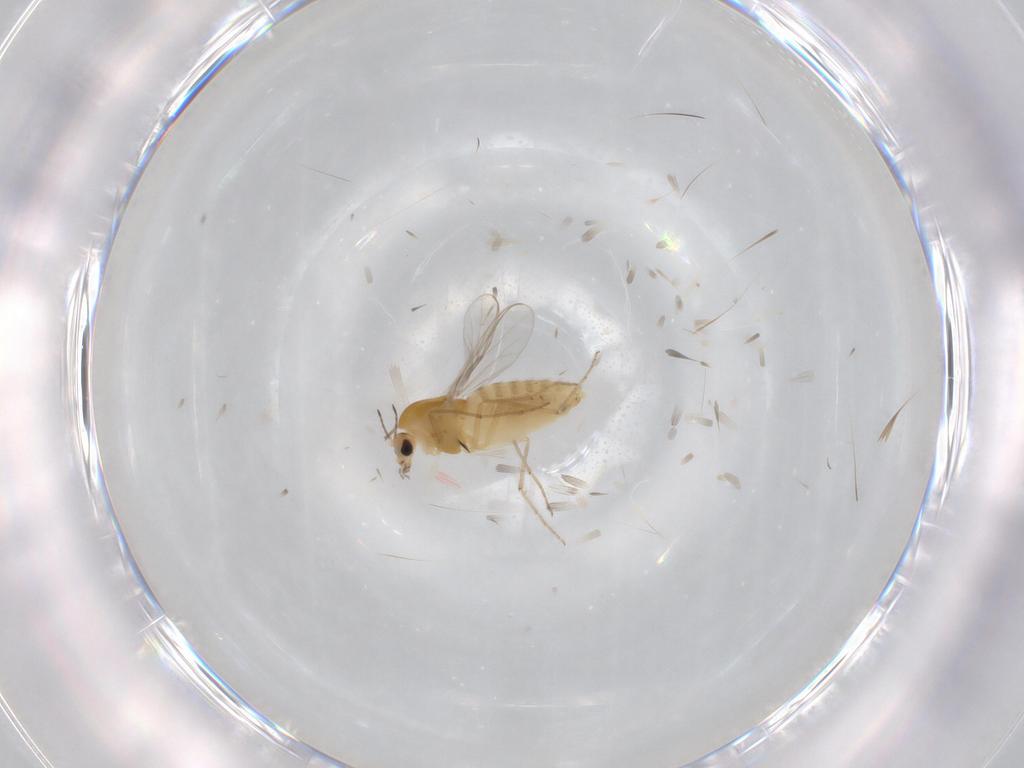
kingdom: Animalia
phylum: Arthropoda
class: Insecta
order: Diptera
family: Chironomidae
